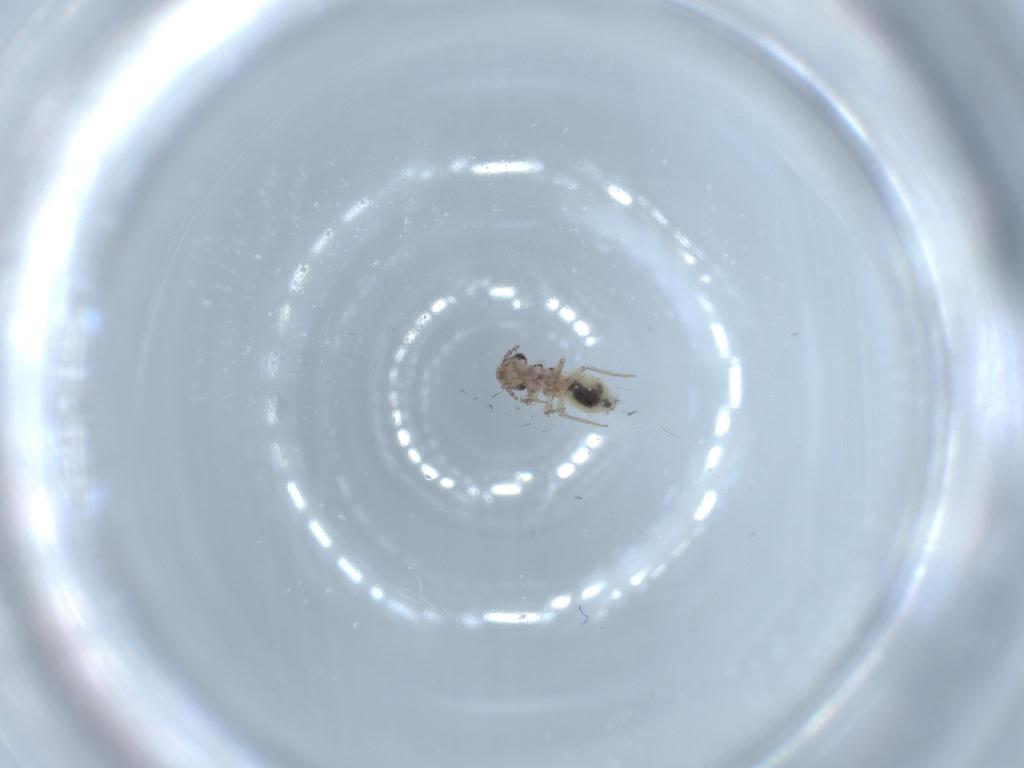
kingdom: Animalia
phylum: Arthropoda
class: Insecta
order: Psocodea
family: Lepidopsocidae
